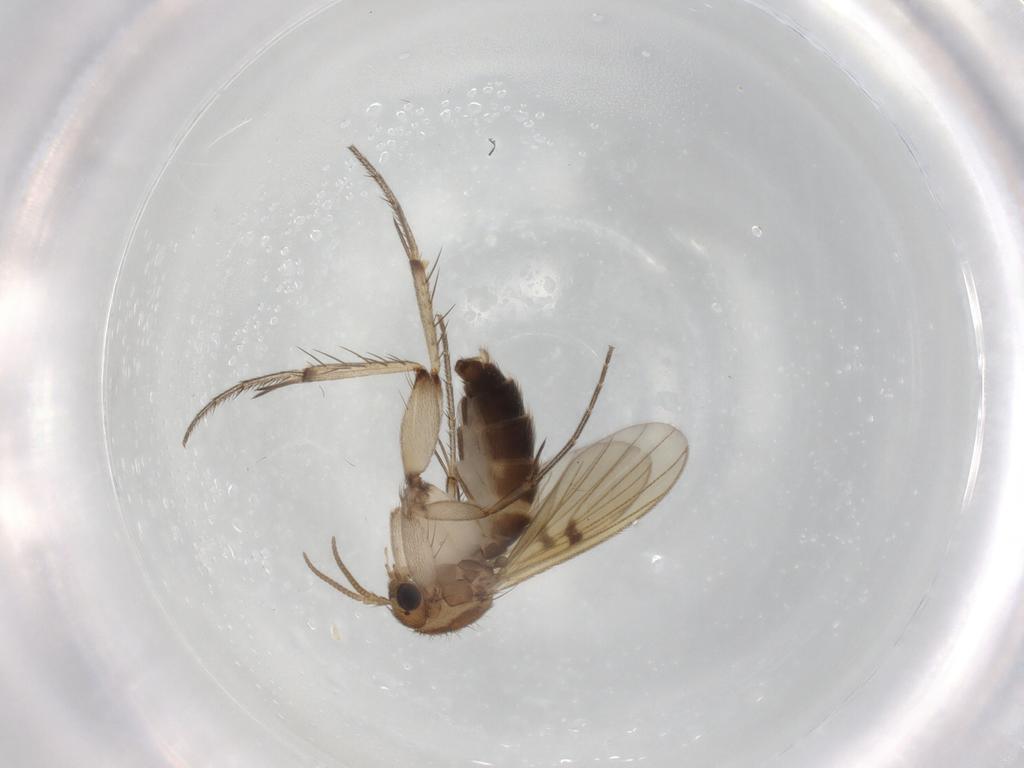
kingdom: Animalia
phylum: Arthropoda
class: Insecta
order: Diptera
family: Mycetophilidae
